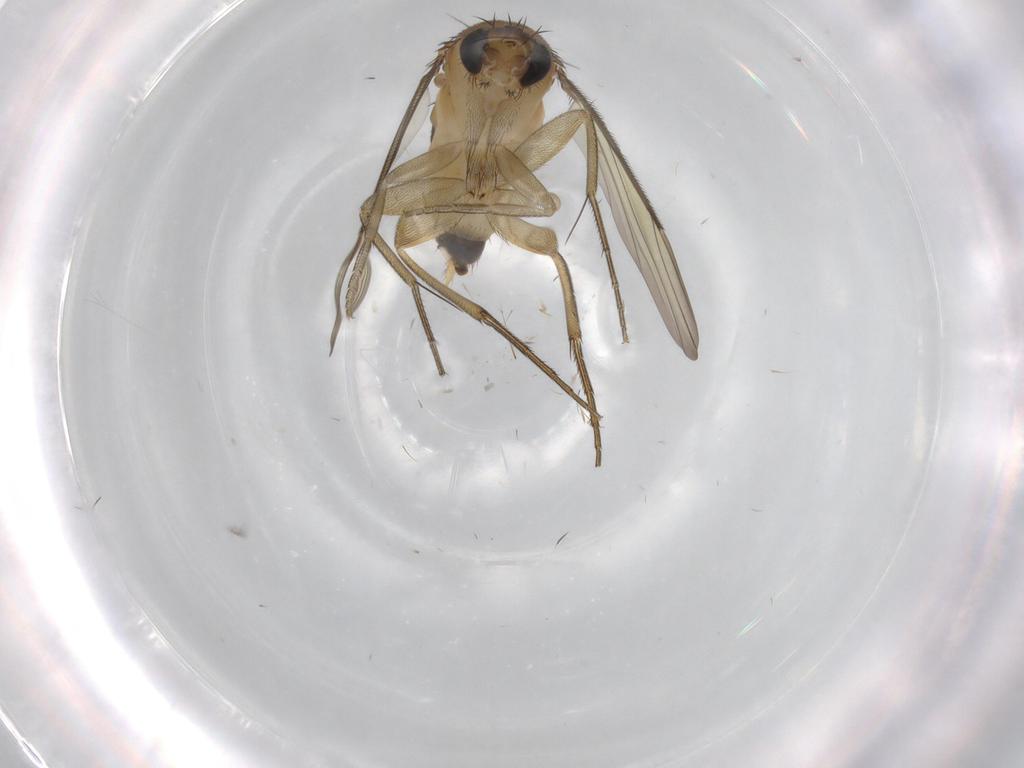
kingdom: Animalia
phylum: Arthropoda
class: Insecta
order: Diptera
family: Phoridae
